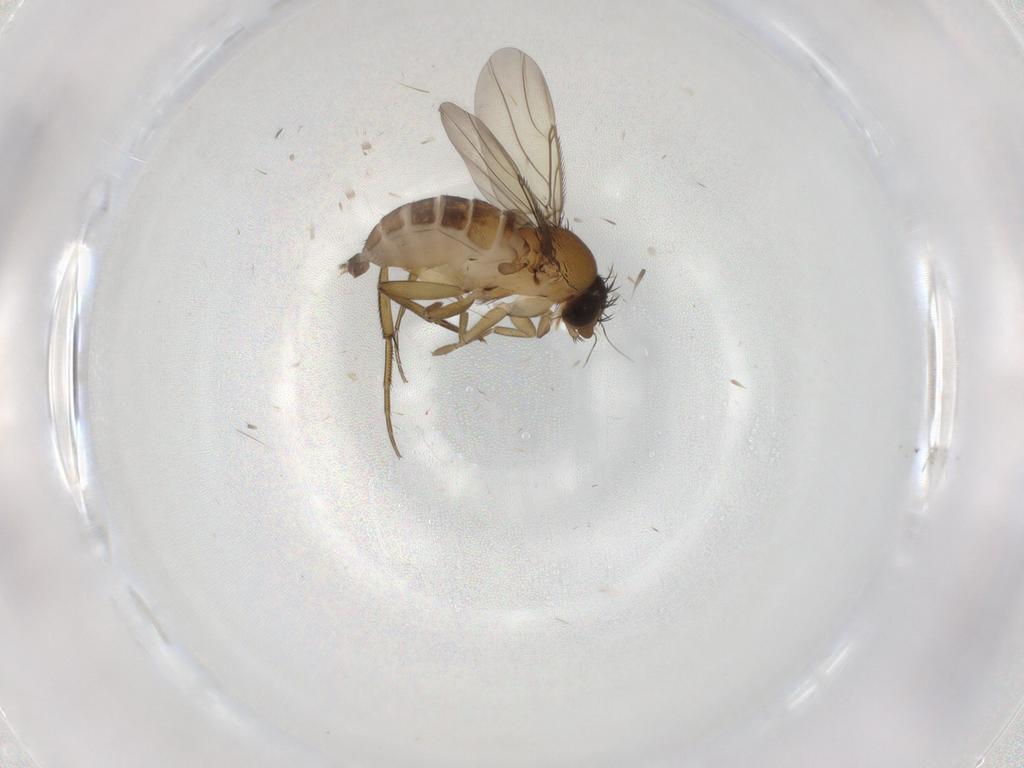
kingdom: Animalia
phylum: Arthropoda
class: Insecta
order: Diptera
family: Phoridae
